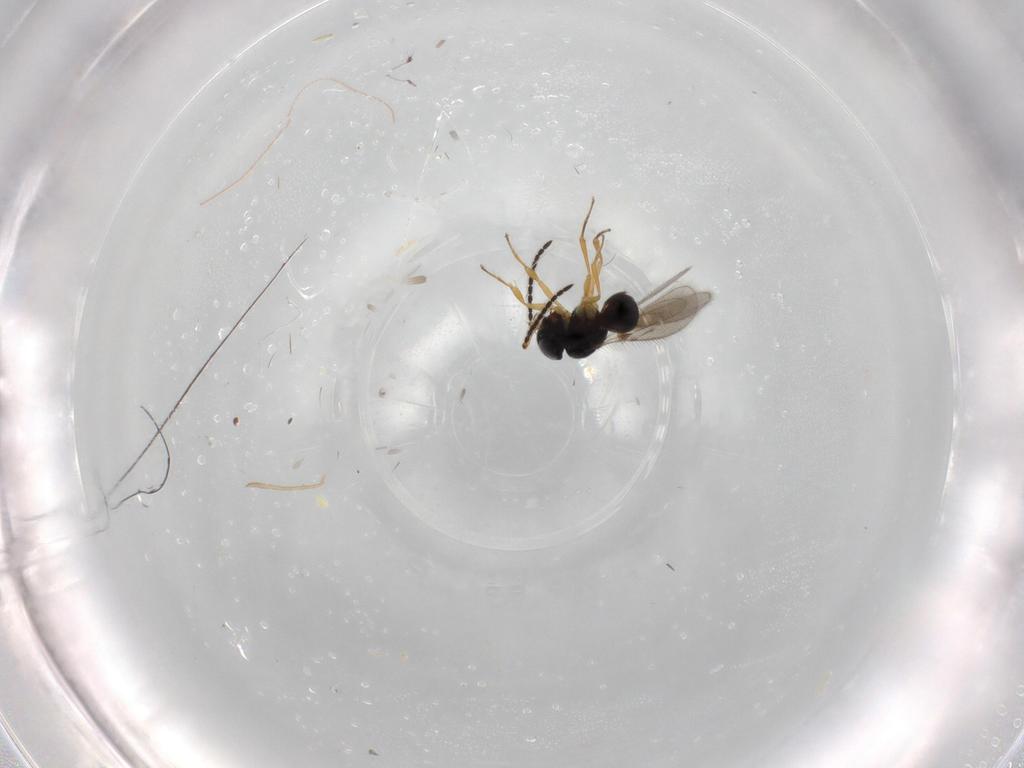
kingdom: Animalia
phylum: Arthropoda
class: Insecta
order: Hymenoptera
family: Scelionidae
